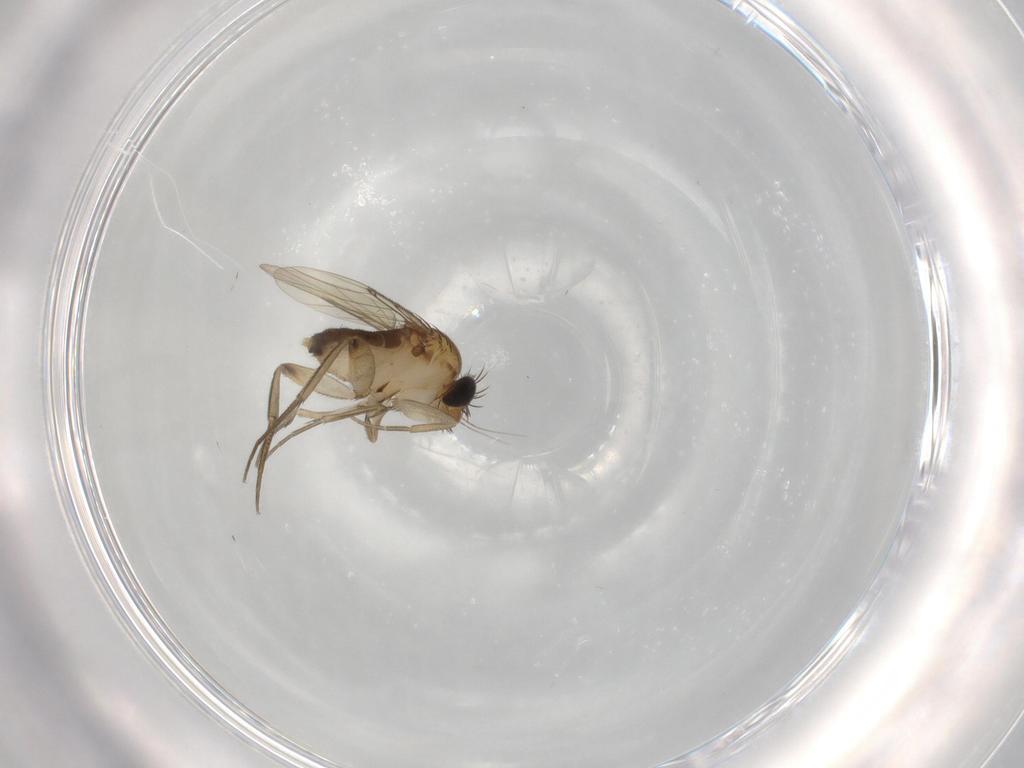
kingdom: Animalia
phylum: Arthropoda
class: Insecta
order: Diptera
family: Phoridae
